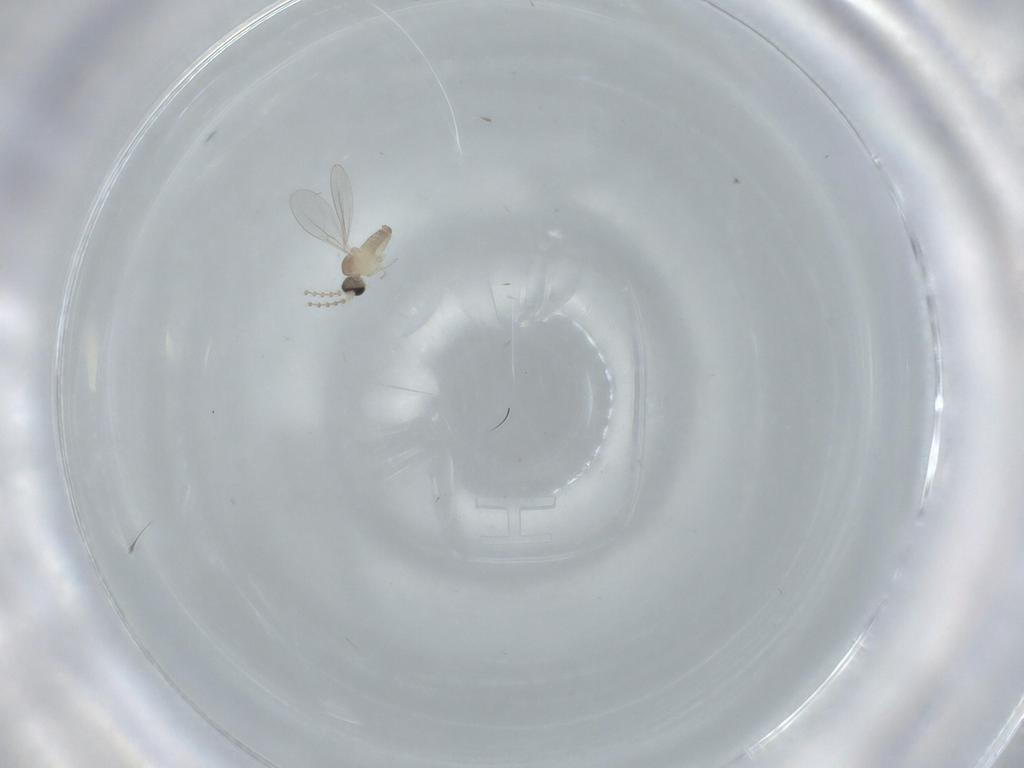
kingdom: Animalia
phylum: Arthropoda
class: Insecta
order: Diptera
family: Cecidomyiidae
